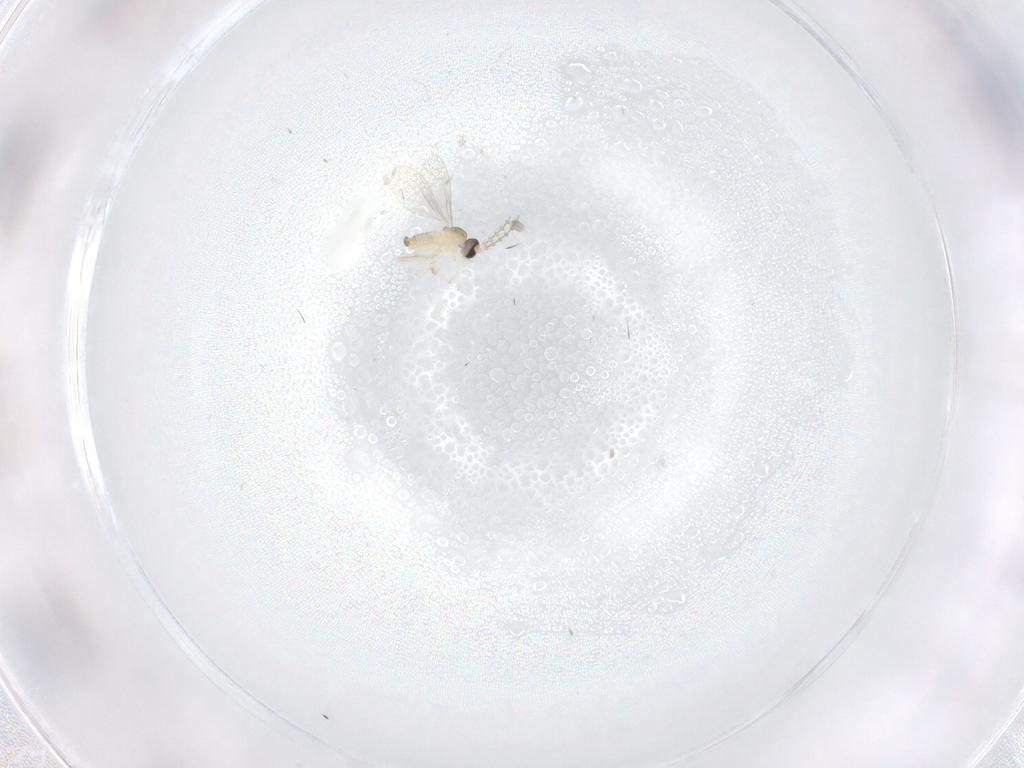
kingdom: Animalia
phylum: Arthropoda
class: Insecta
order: Diptera
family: Cecidomyiidae
